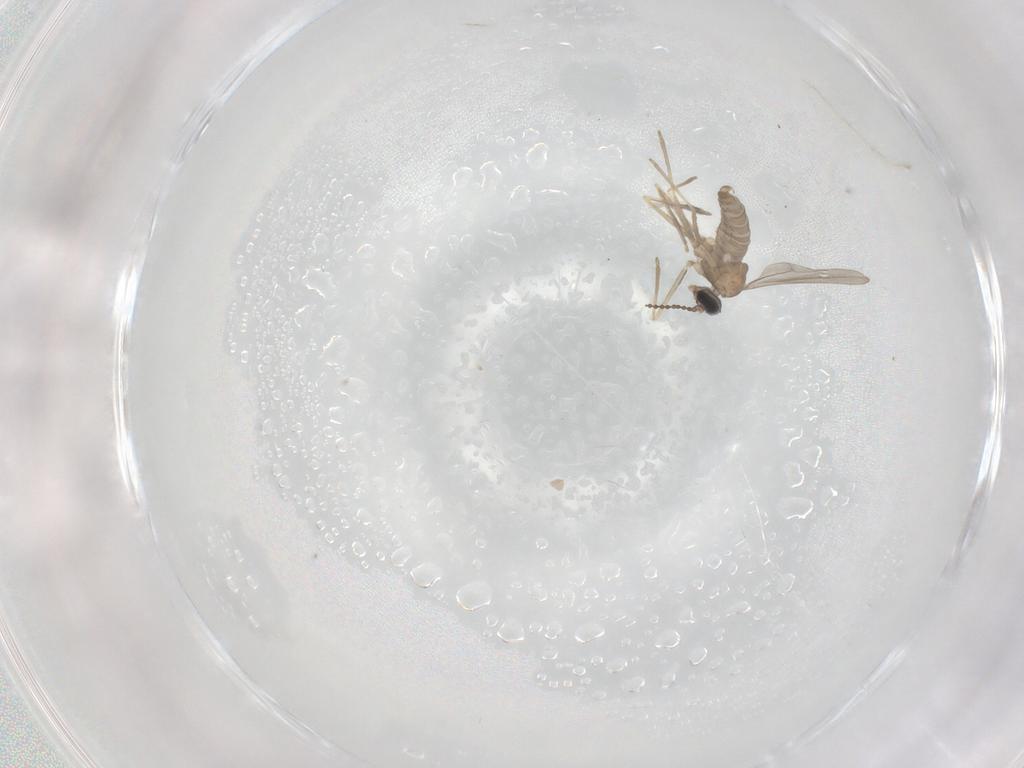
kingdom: Animalia
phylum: Arthropoda
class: Insecta
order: Diptera
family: Cecidomyiidae
